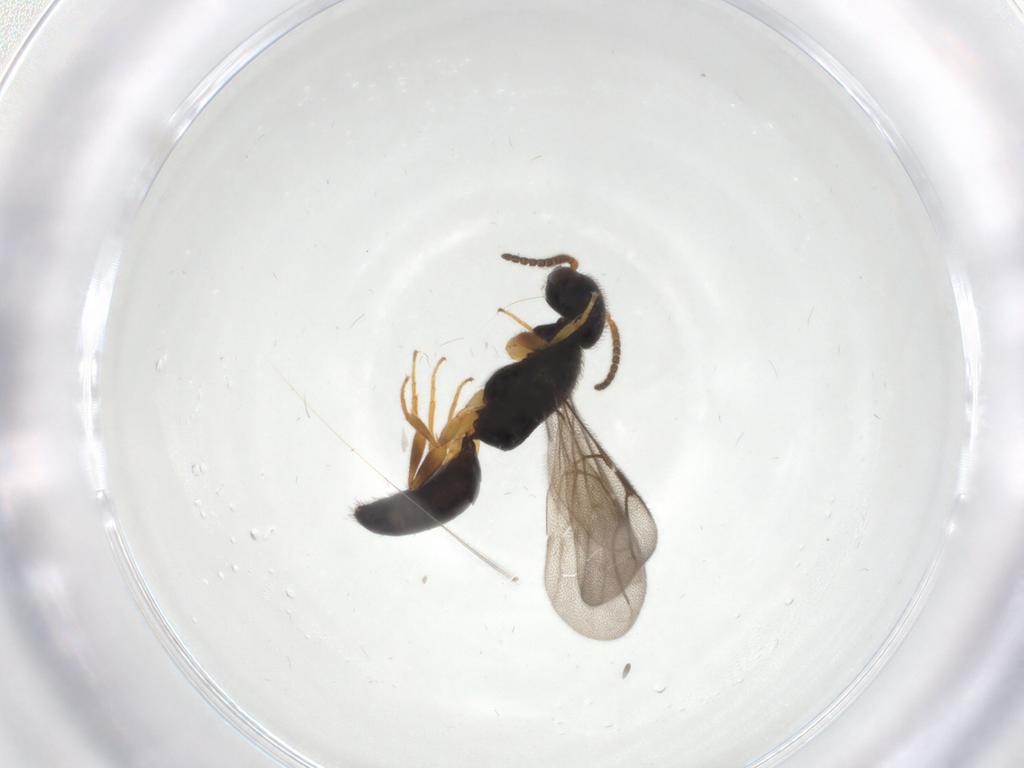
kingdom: Animalia
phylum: Arthropoda
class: Insecta
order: Hymenoptera
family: Bethylidae
